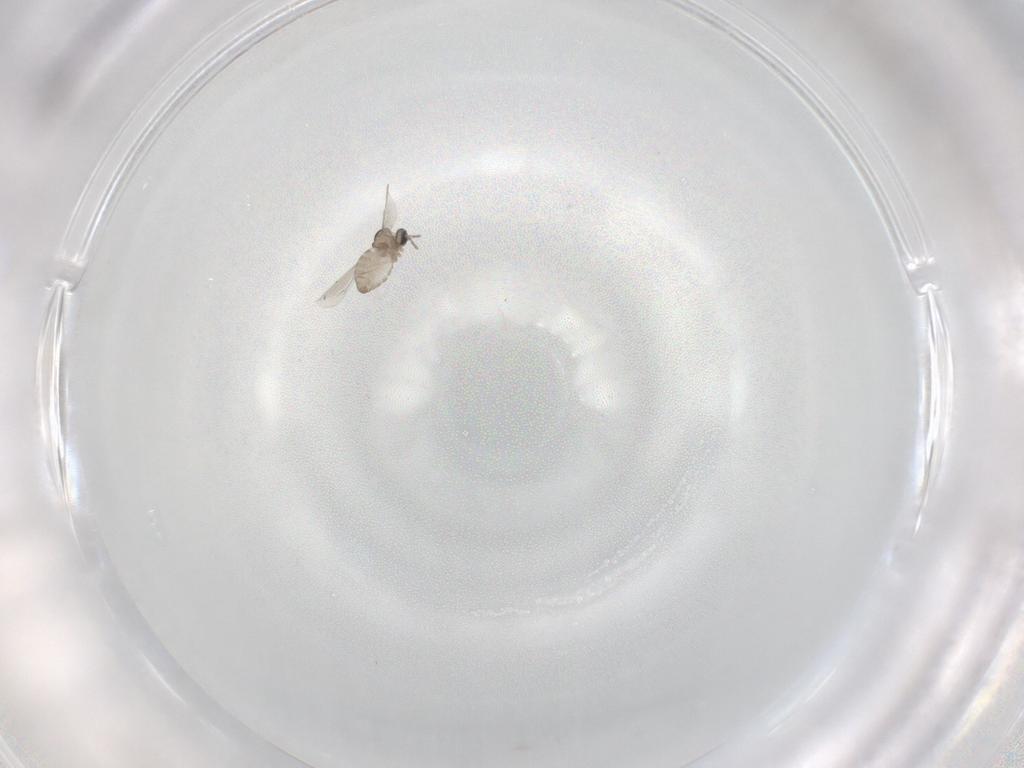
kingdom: Animalia
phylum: Arthropoda
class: Insecta
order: Diptera
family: Cecidomyiidae
